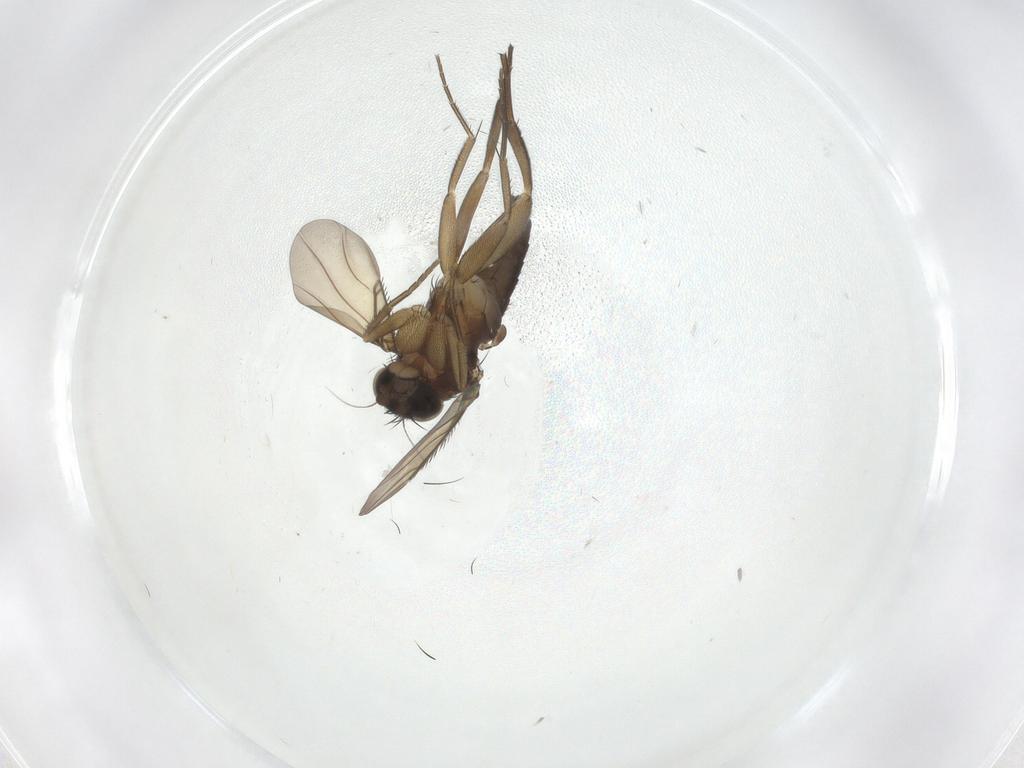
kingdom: Animalia
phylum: Arthropoda
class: Insecta
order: Diptera
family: Phoridae
